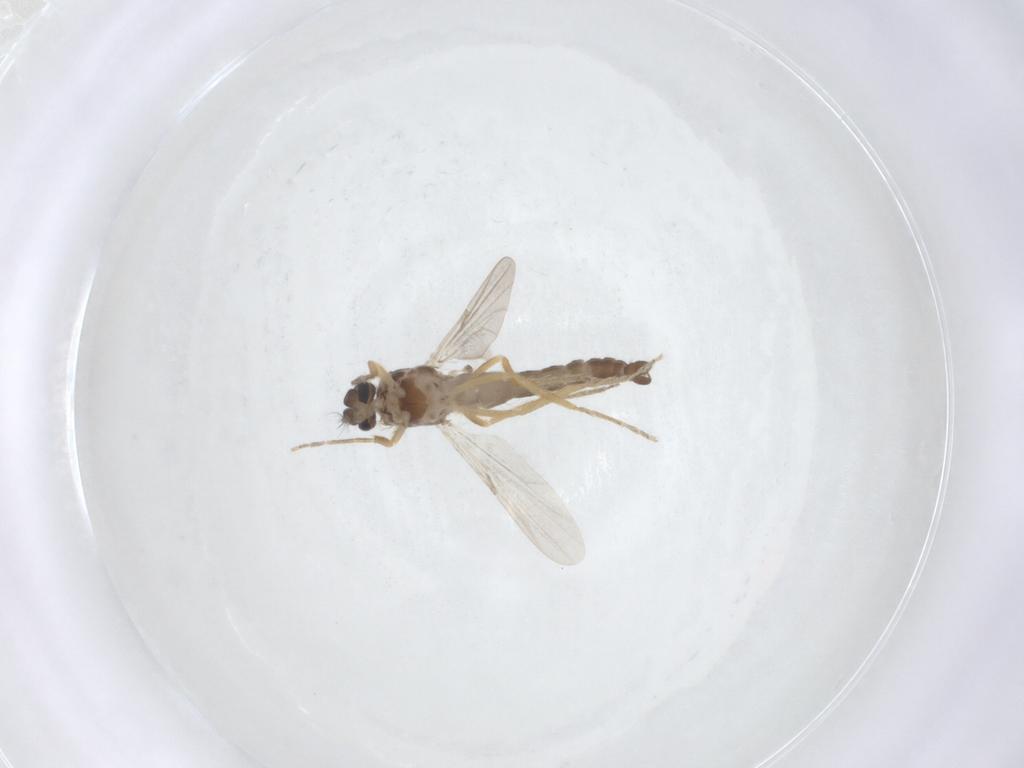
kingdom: Animalia
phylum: Arthropoda
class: Insecta
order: Diptera
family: Ceratopogonidae
